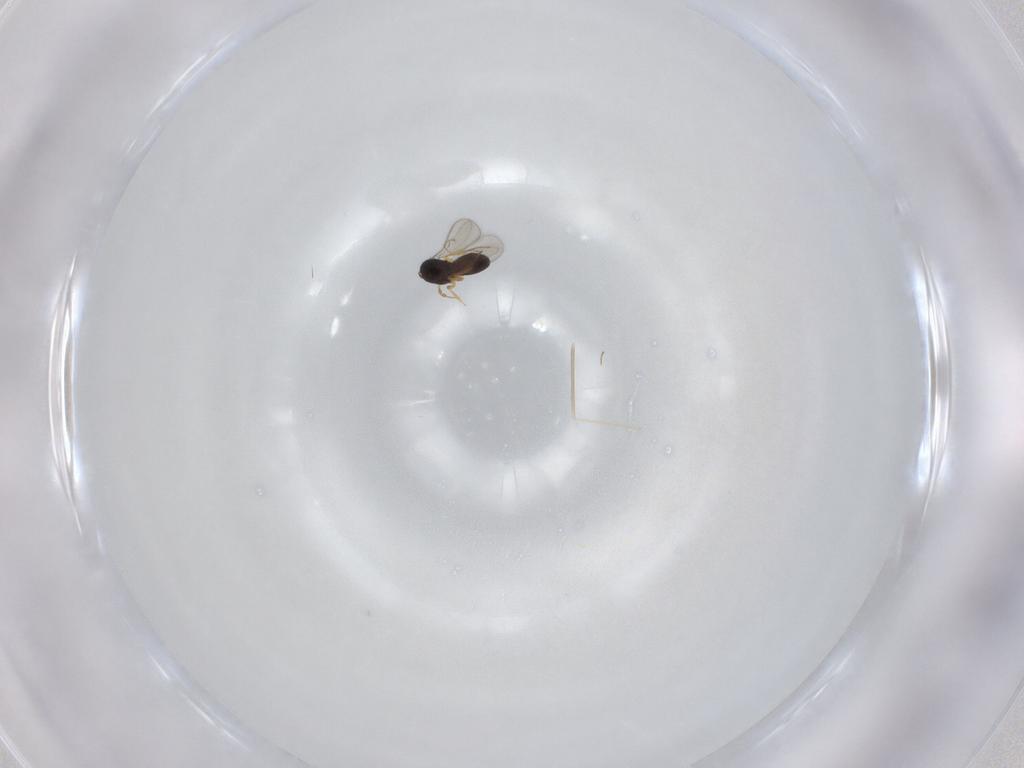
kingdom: Animalia
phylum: Arthropoda
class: Insecta
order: Hymenoptera
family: Scelionidae
